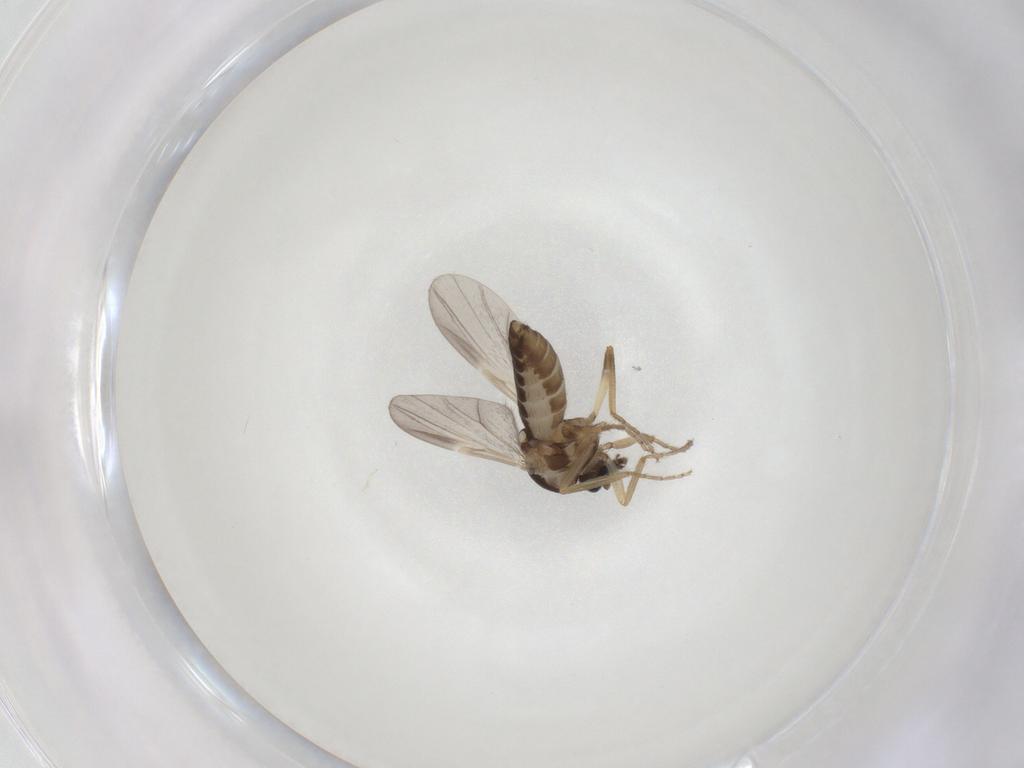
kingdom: Animalia
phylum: Arthropoda
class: Insecta
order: Diptera
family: Ceratopogonidae
